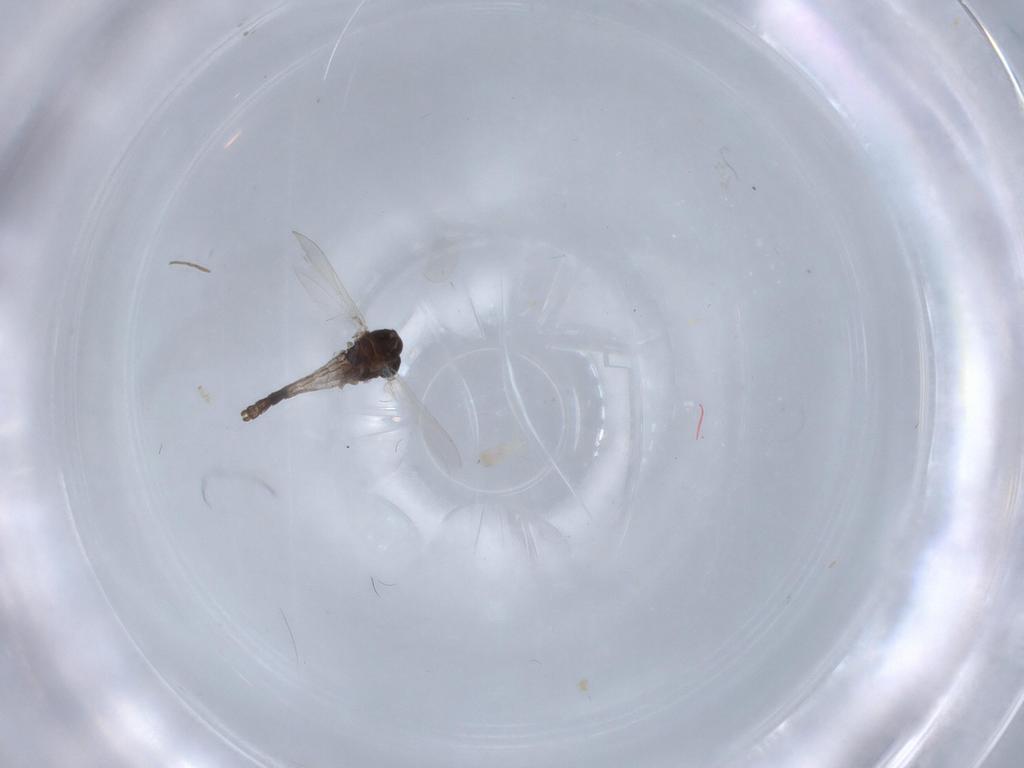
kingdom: Animalia
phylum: Arthropoda
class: Insecta
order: Diptera
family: Chironomidae
